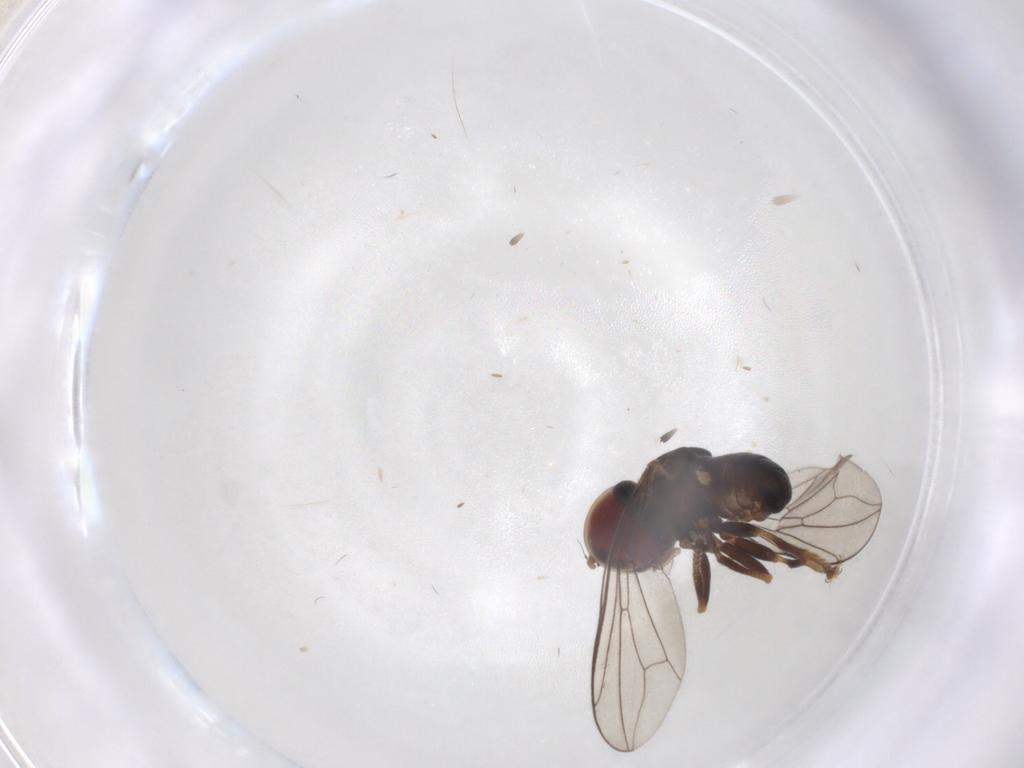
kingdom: Animalia
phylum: Arthropoda
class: Insecta
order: Diptera
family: Pipunculidae
